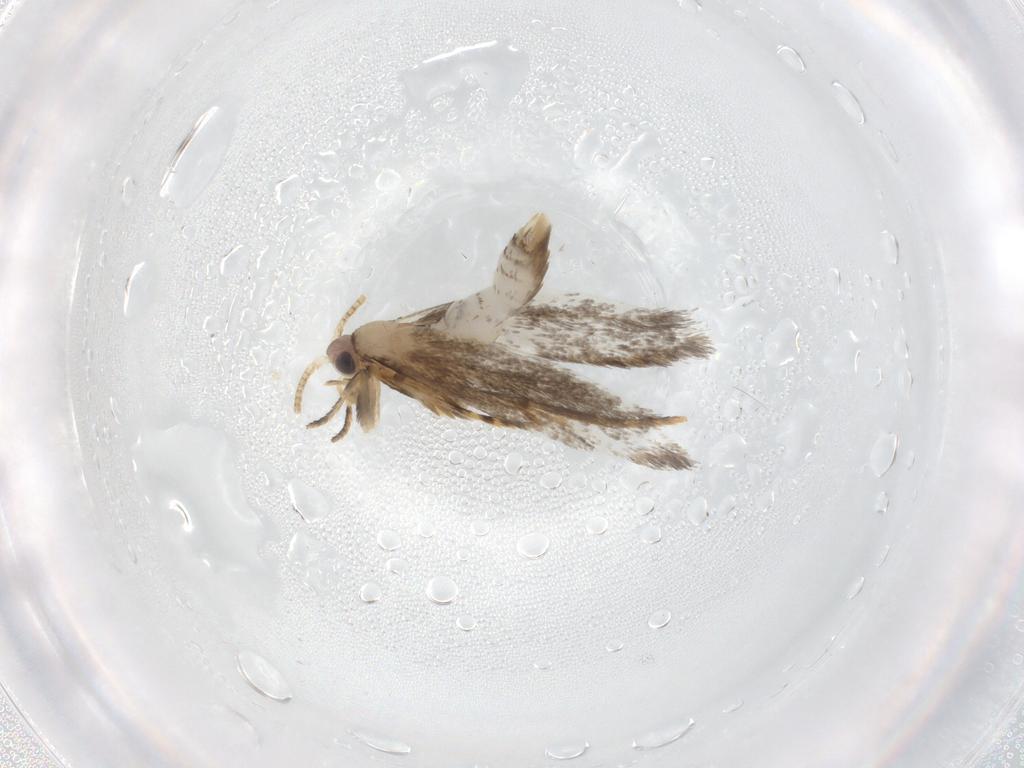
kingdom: Animalia
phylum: Arthropoda
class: Insecta
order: Lepidoptera
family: Tineidae
